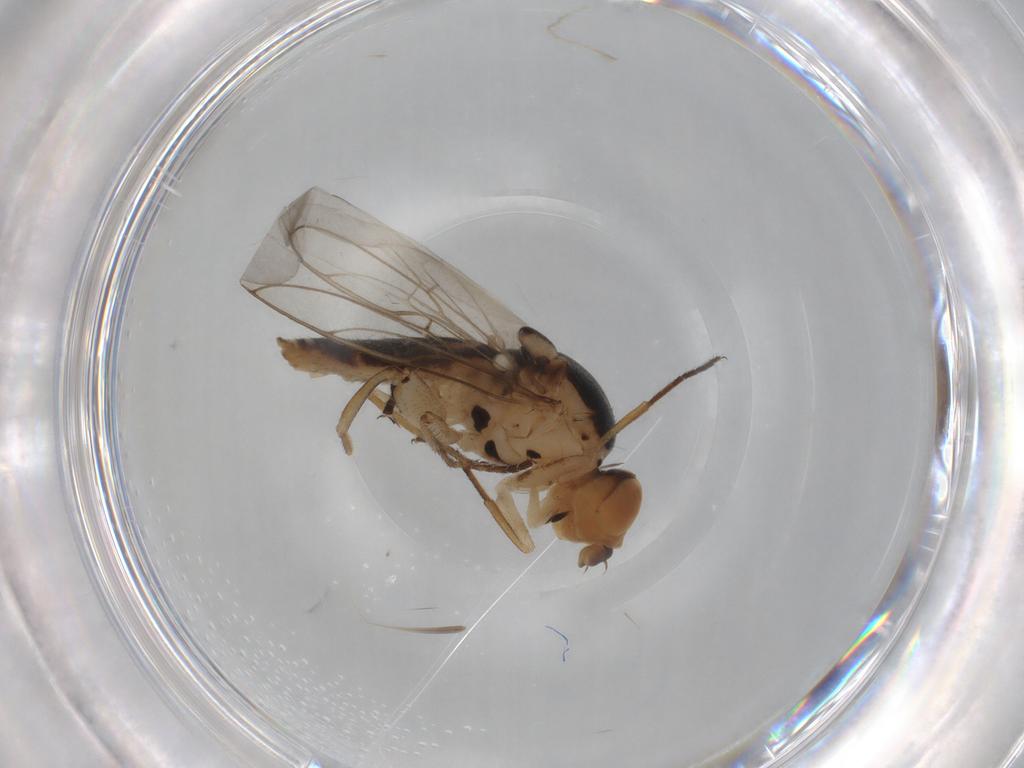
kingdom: Animalia
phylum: Arthropoda
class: Insecta
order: Diptera
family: Chloropidae
